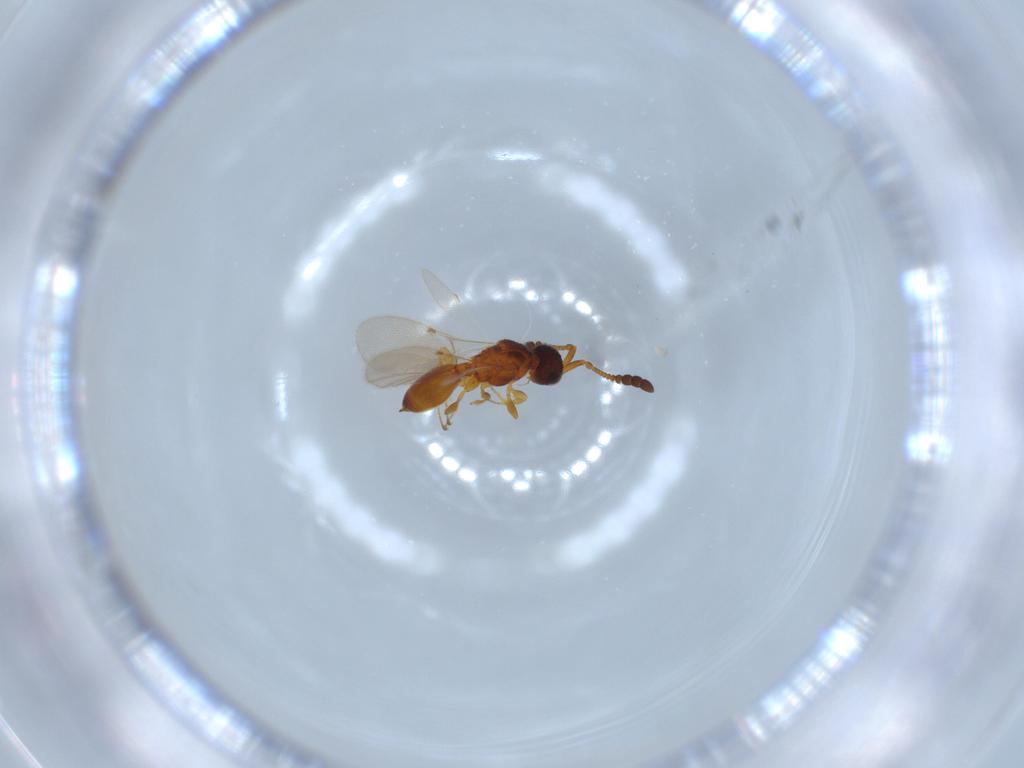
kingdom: Animalia
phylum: Arthropoda
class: Insecta
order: Hymenoptera
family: Diapriidae
